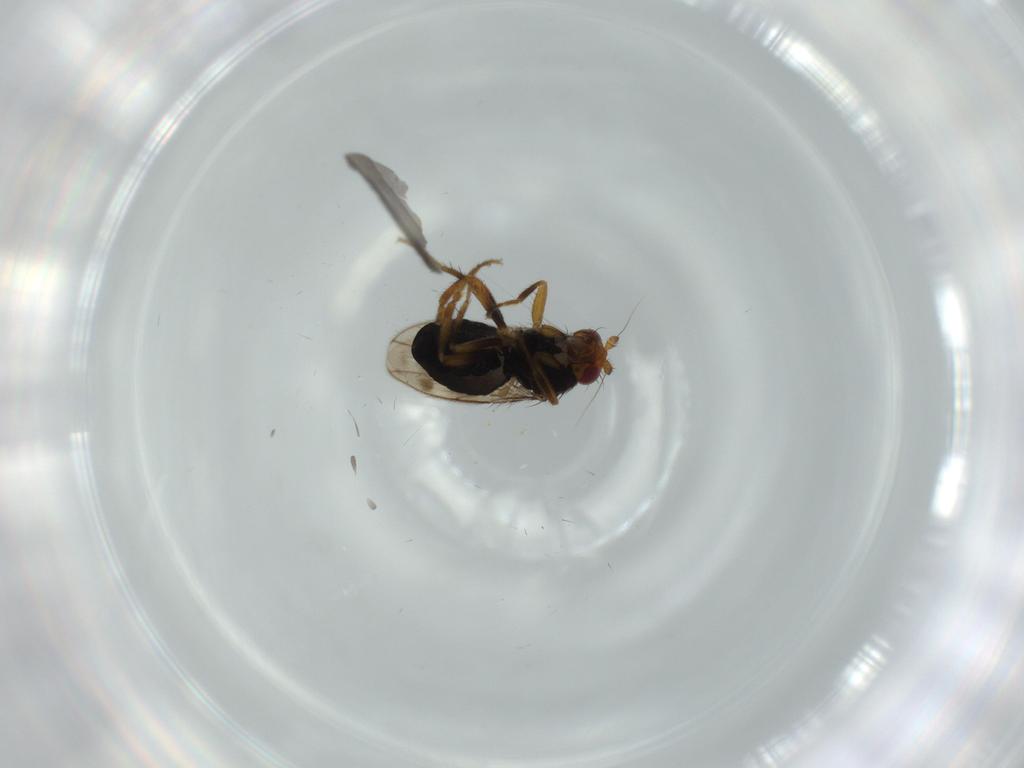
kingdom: Animalia
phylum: Arthropoda
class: Insecta
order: Diptera
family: Sphaeroceridae
